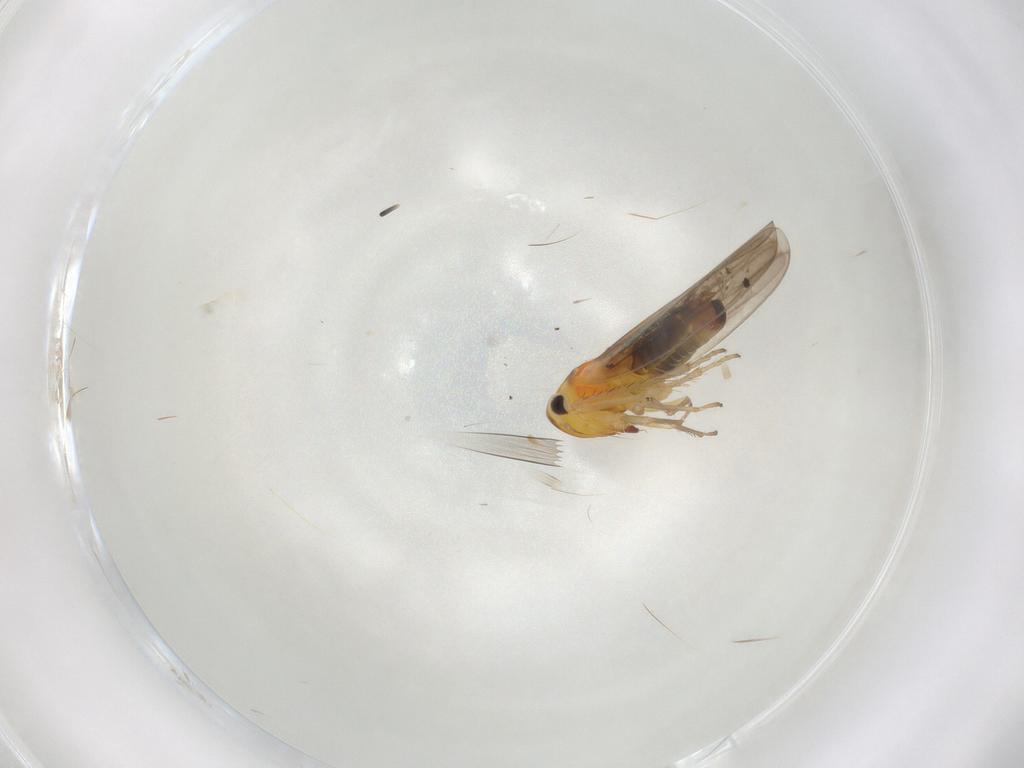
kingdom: Animalia
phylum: Arthropoda
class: Insecta
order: Hemiptera
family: Cicadellidae
